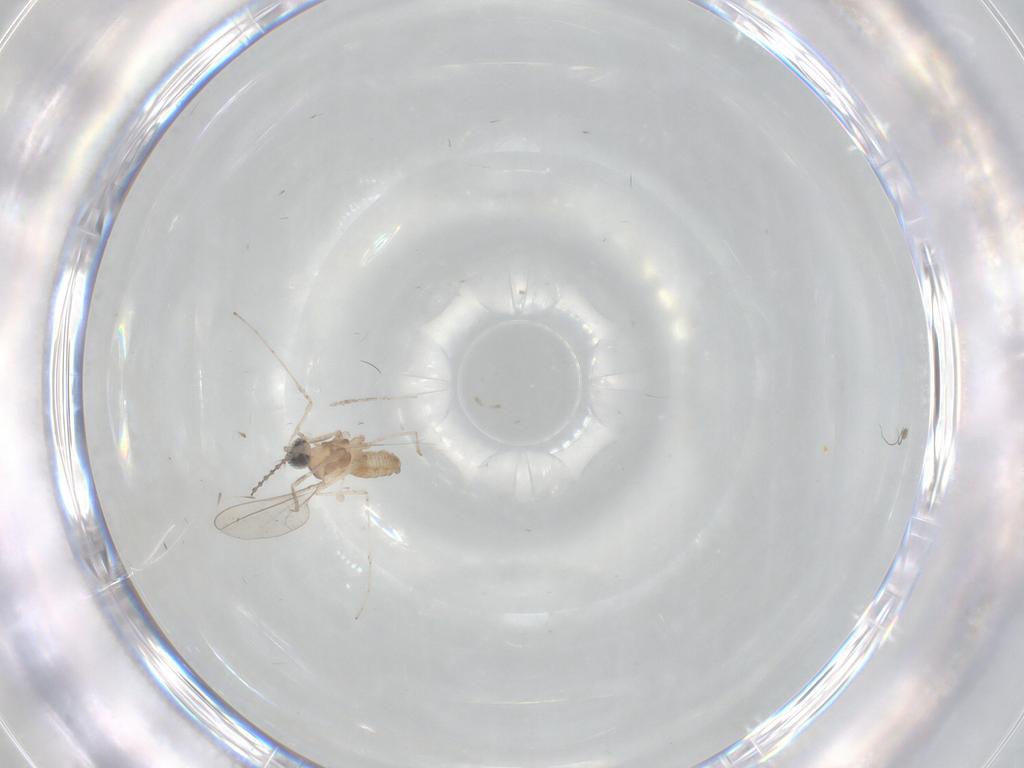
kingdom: Animalia
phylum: Arthropoda
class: Insecta
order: Diptera
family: Cecidomyiidae
